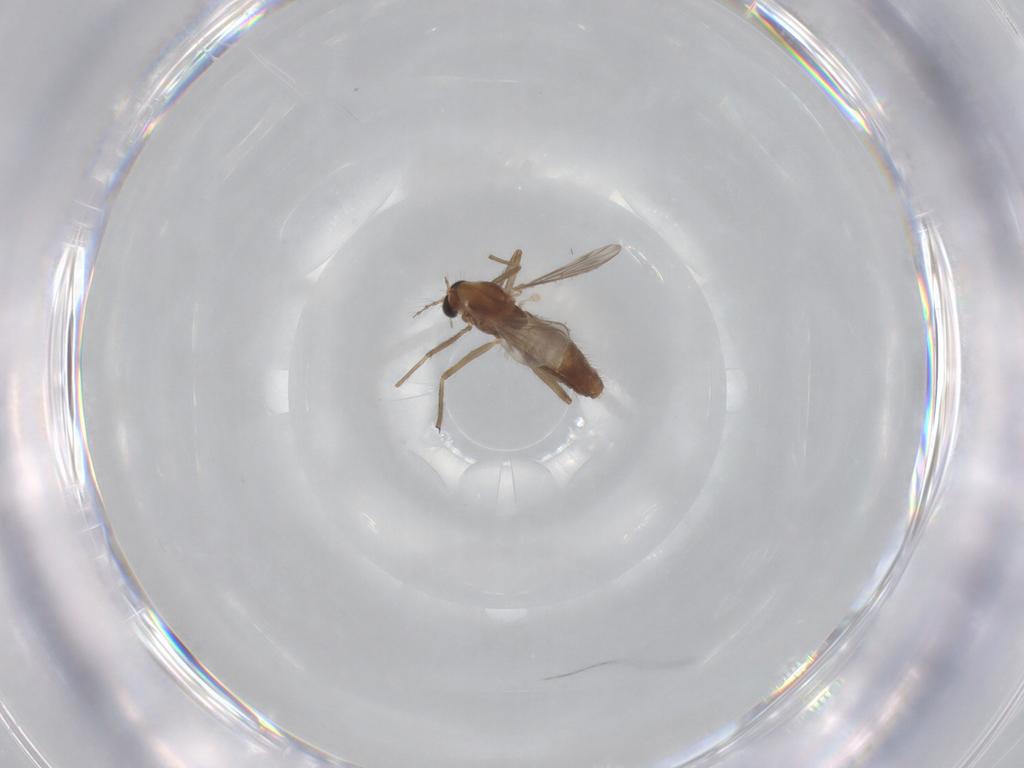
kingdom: Animalia
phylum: Arthropoda
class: Insecta
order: Diptera
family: Chironomidae
